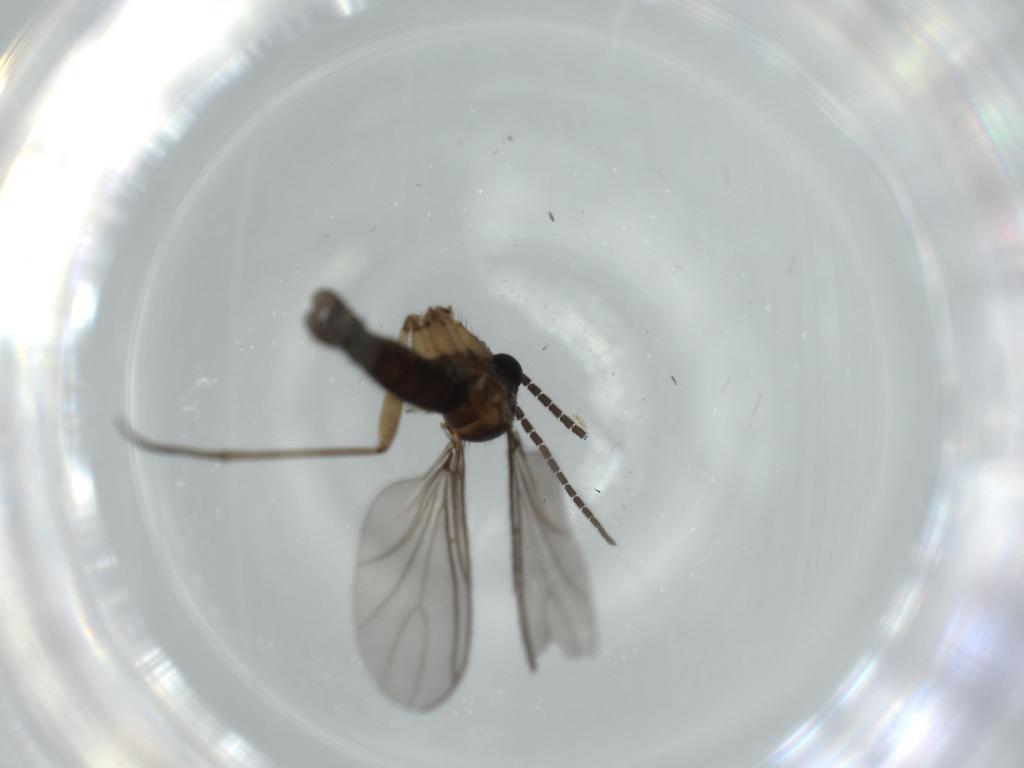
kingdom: Animalia
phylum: Arthropoda
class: Insecta
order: Diptera
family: Sciaridae
